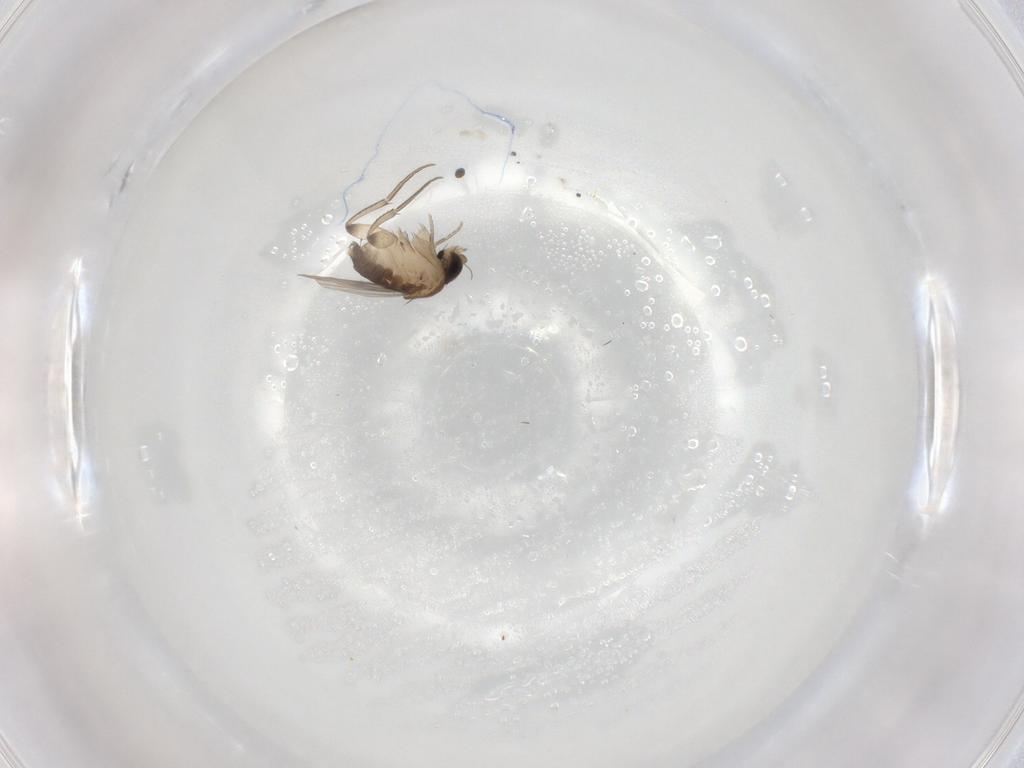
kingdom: Animalia
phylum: Arthropoda
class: Insecta
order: Diptera
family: Phoridae
